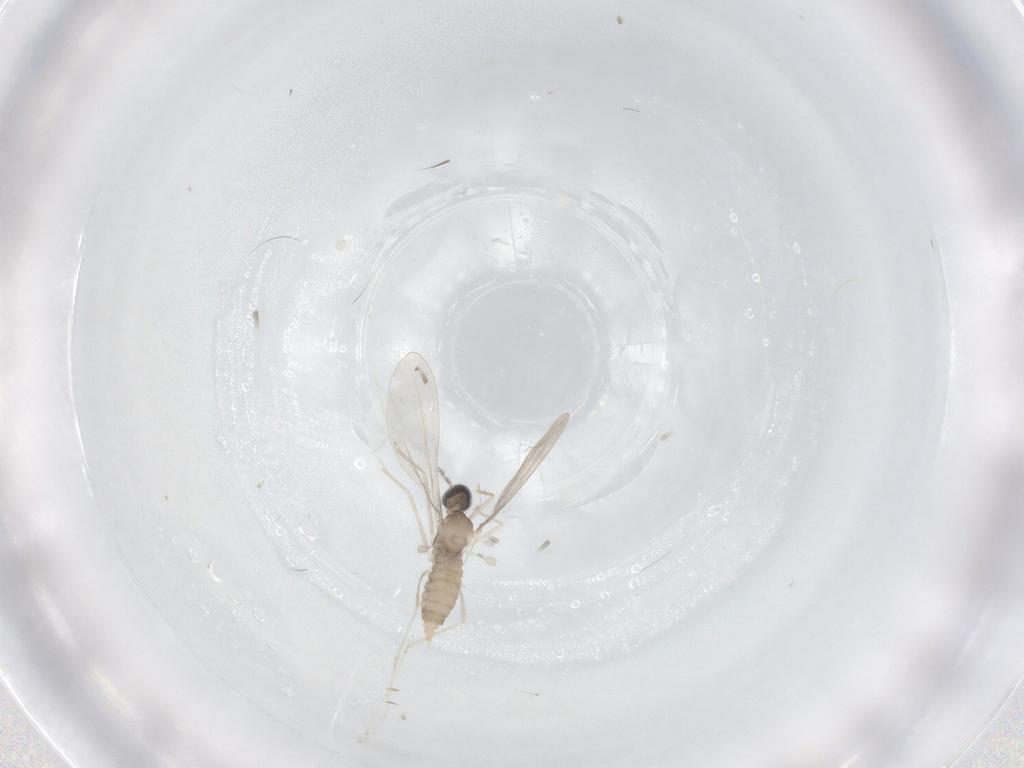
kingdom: Animalia
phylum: Arthropoda
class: Insecta
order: Diptera
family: Cecidomyiidae
